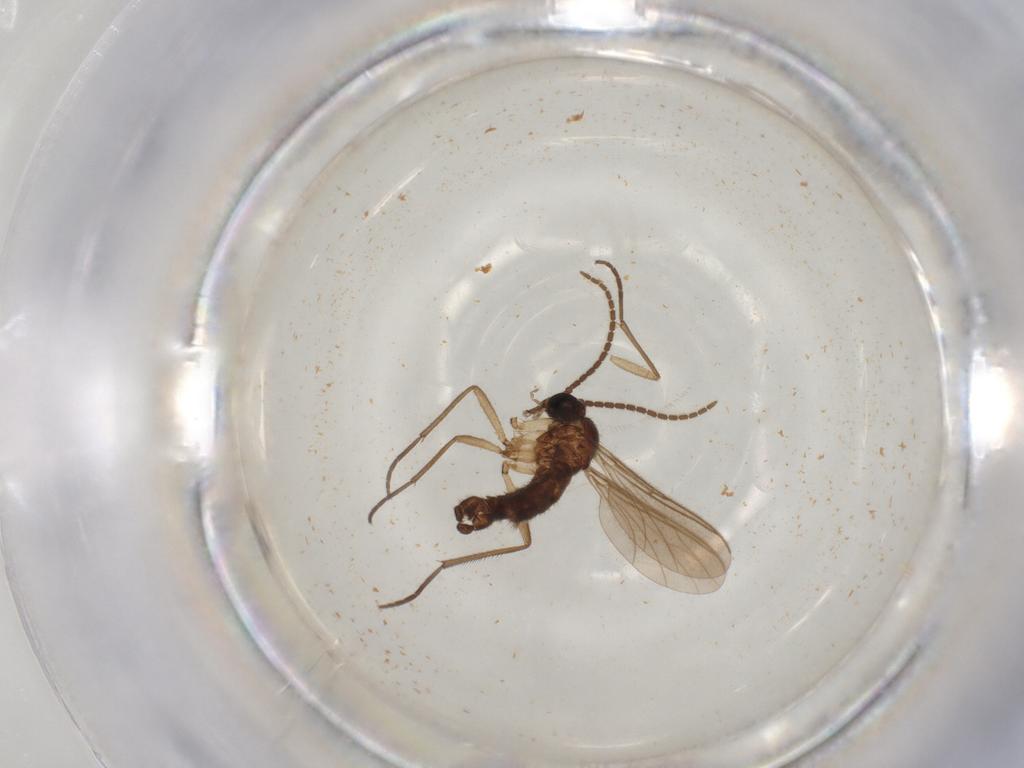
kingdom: Animalia
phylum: Arthropoda
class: Insecta
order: Diptera
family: Sciaridae
